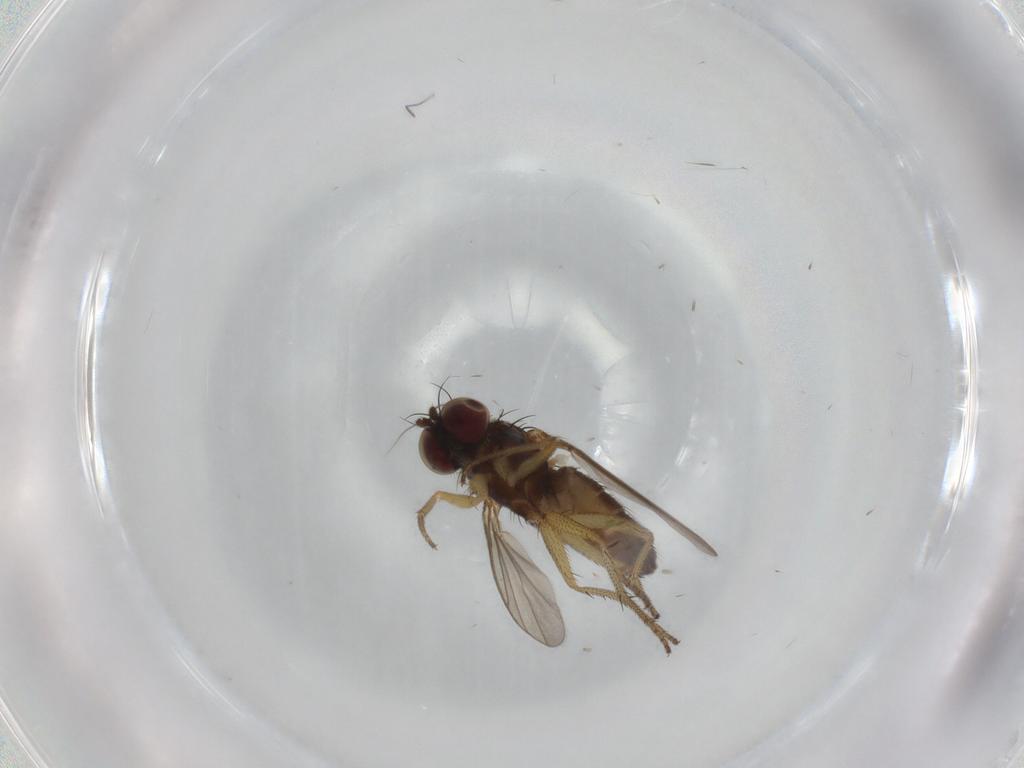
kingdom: Animalia
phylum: Arthropoda
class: Insecta
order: Diptera
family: Dolichopodidae
